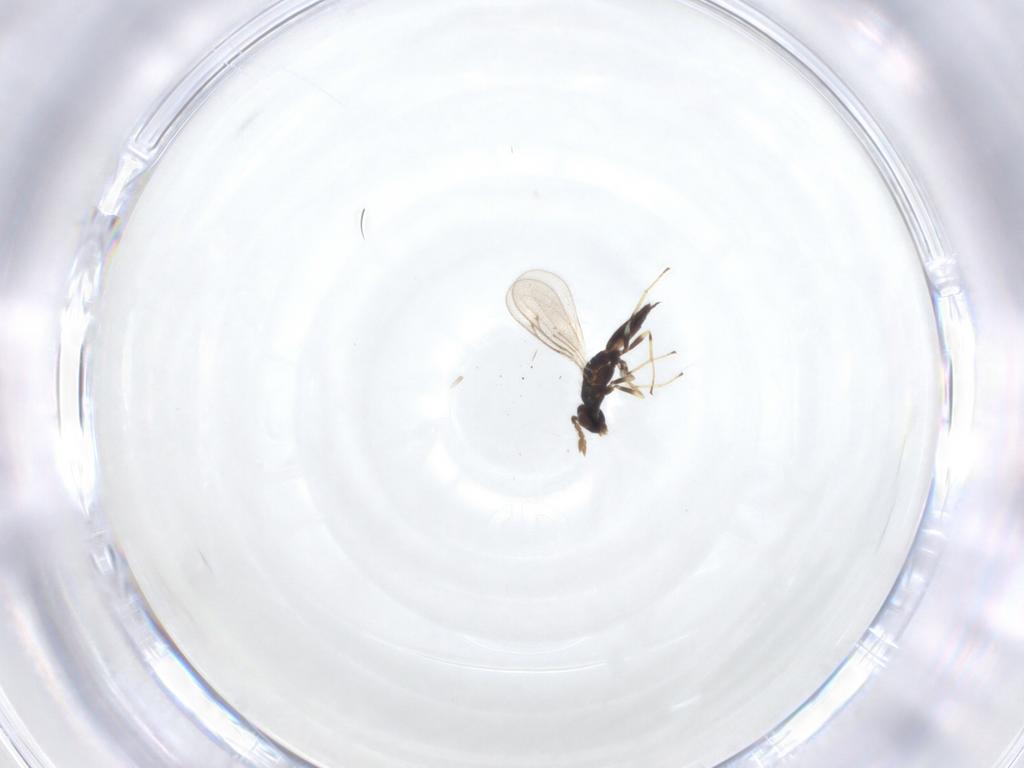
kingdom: Animalia
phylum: Arthropoda
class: Insecta
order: Hymenoptera
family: Eulophidae
